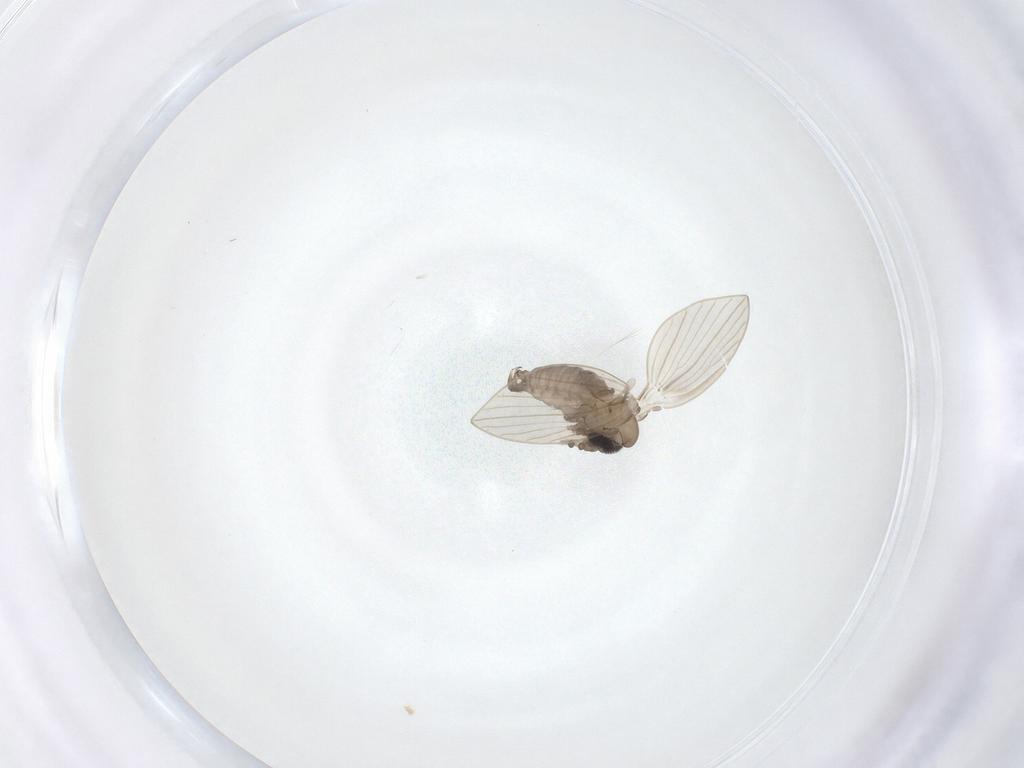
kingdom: Animalia
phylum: Arthropoda
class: Insecta
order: Diptera
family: Psychodidae
